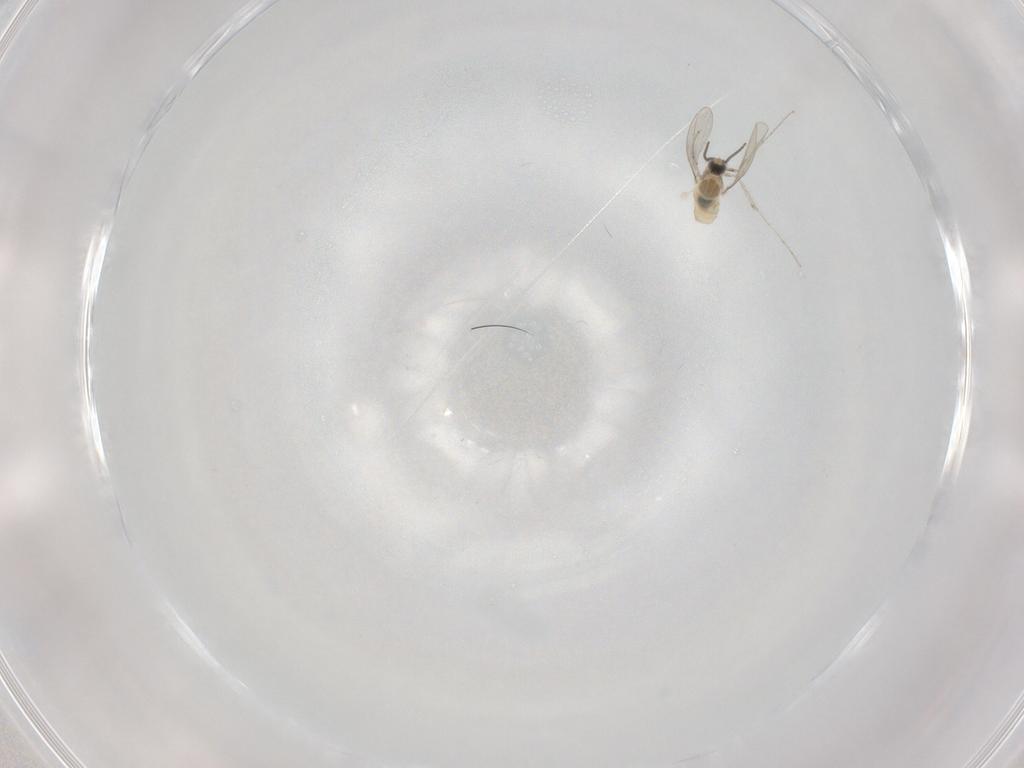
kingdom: Animalia
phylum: Arthropoda
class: Insecta
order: Diptera
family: Cecidomyiidae
